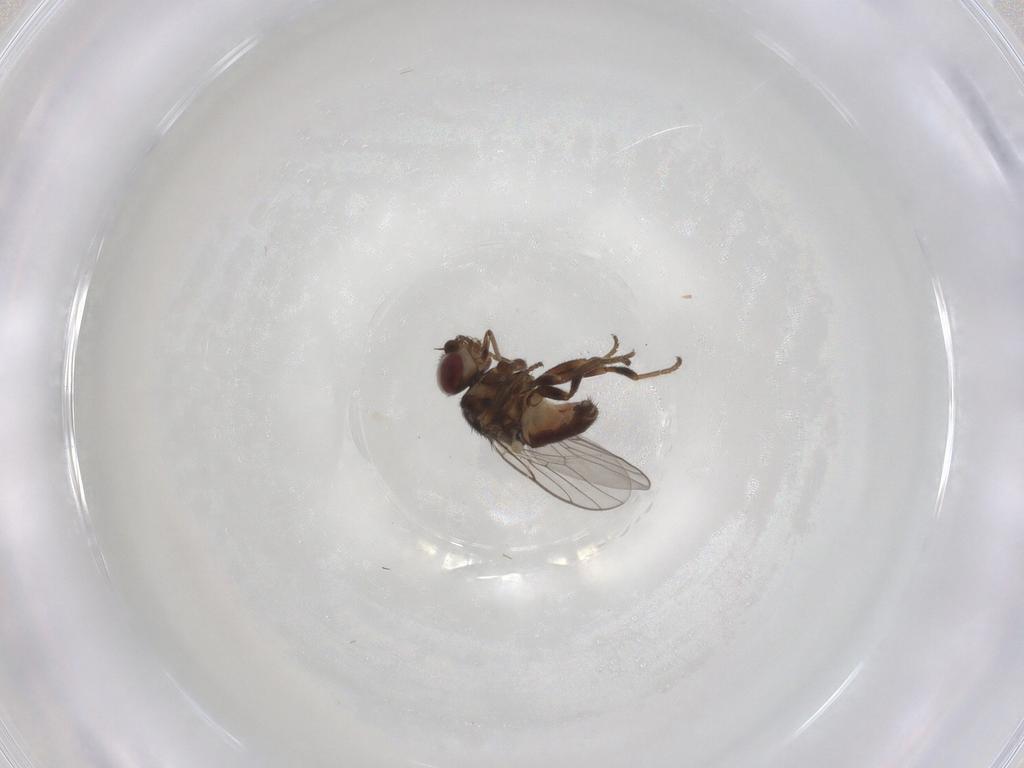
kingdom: Animalia
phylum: Arthropoda
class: Insecta
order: Diptera
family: Chloropidae
